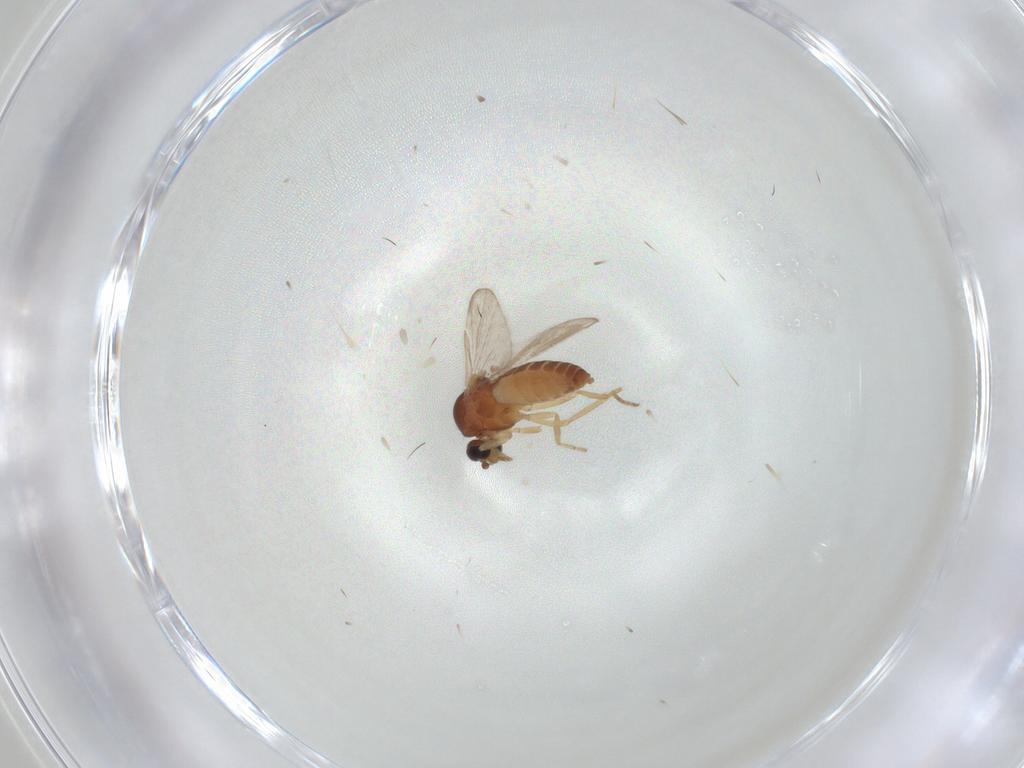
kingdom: Animalia
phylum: Arthropoda
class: Insecta
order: Diptera
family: Ceratopogonidae
